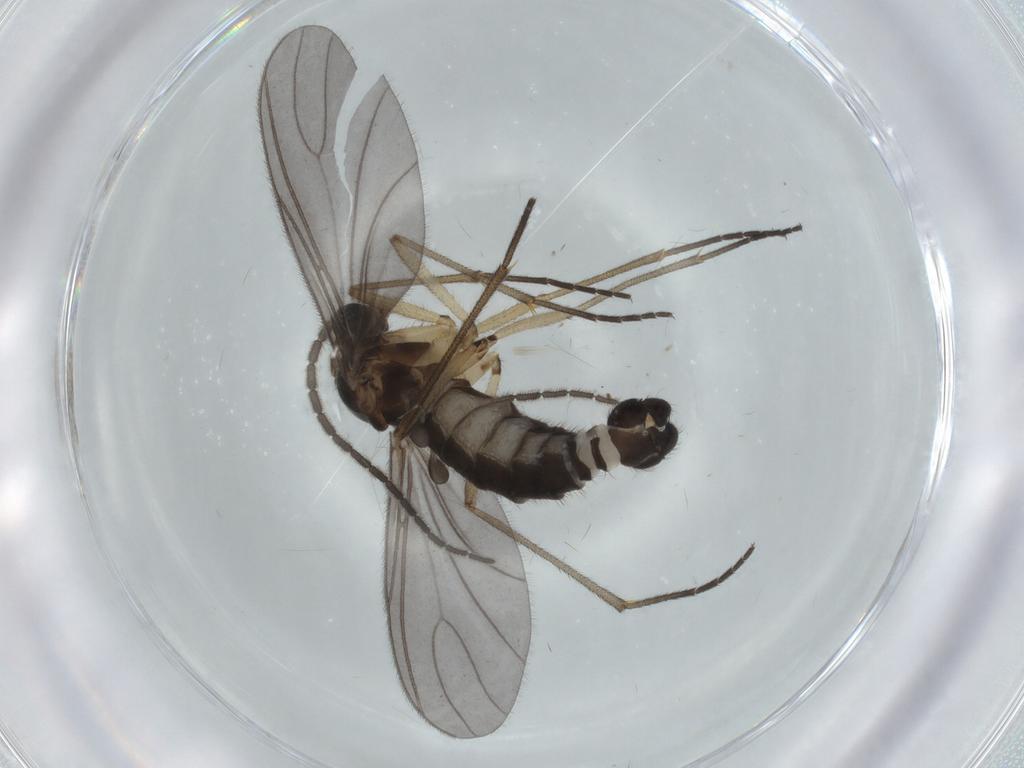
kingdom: Animalia
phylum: Arthropoda
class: Insecta
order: Diptera
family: Sciaridae
